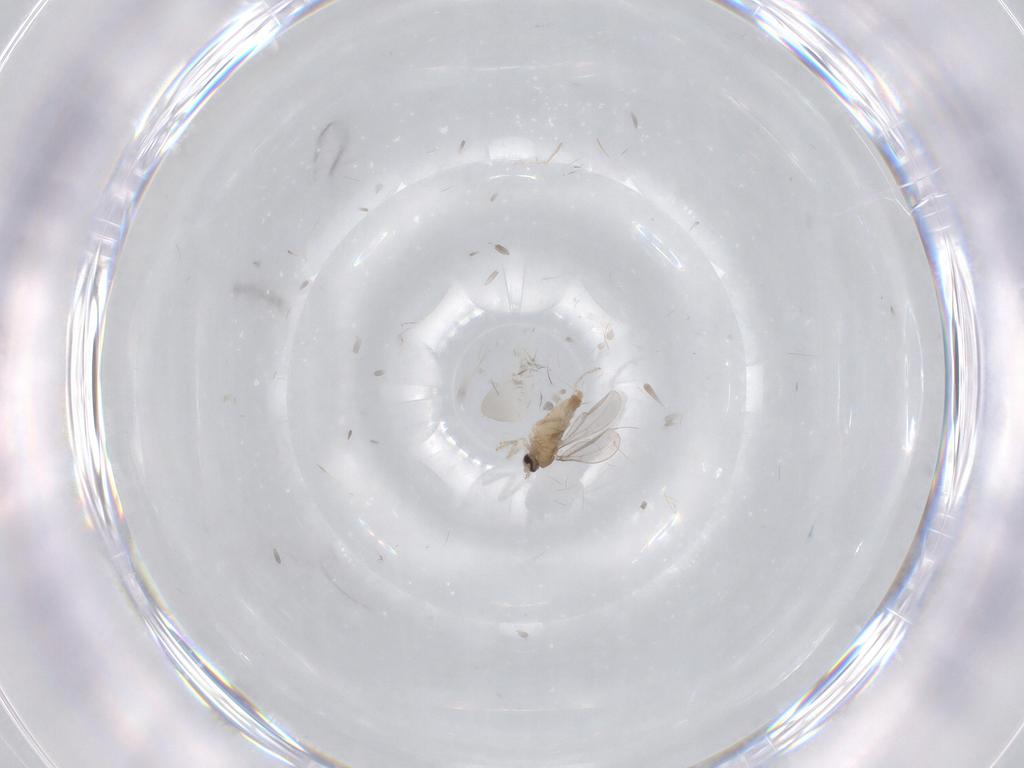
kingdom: Animalia
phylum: Arthropoda
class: Insecta
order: Diptera
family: Cecidomyiidae
